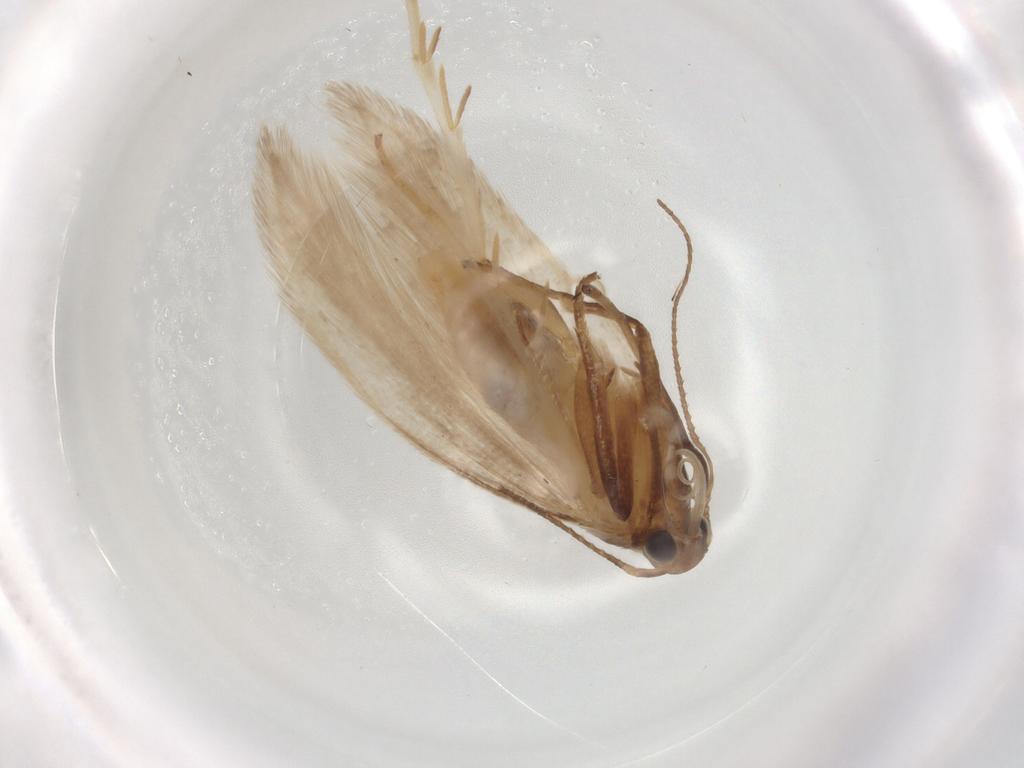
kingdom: Animalia
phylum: Arthropoda
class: Insecta
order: Lepidoptera
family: Gelechiidae
